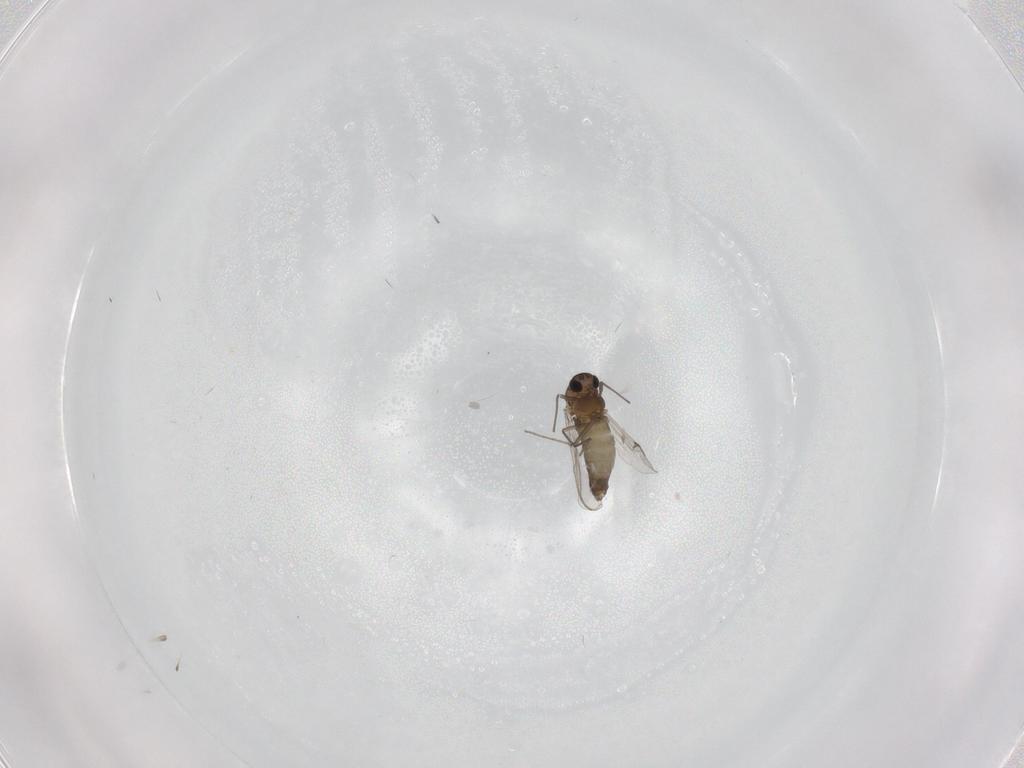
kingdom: Animalia
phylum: Arthropoda
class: Insecta
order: Diptera
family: Chironomidae
